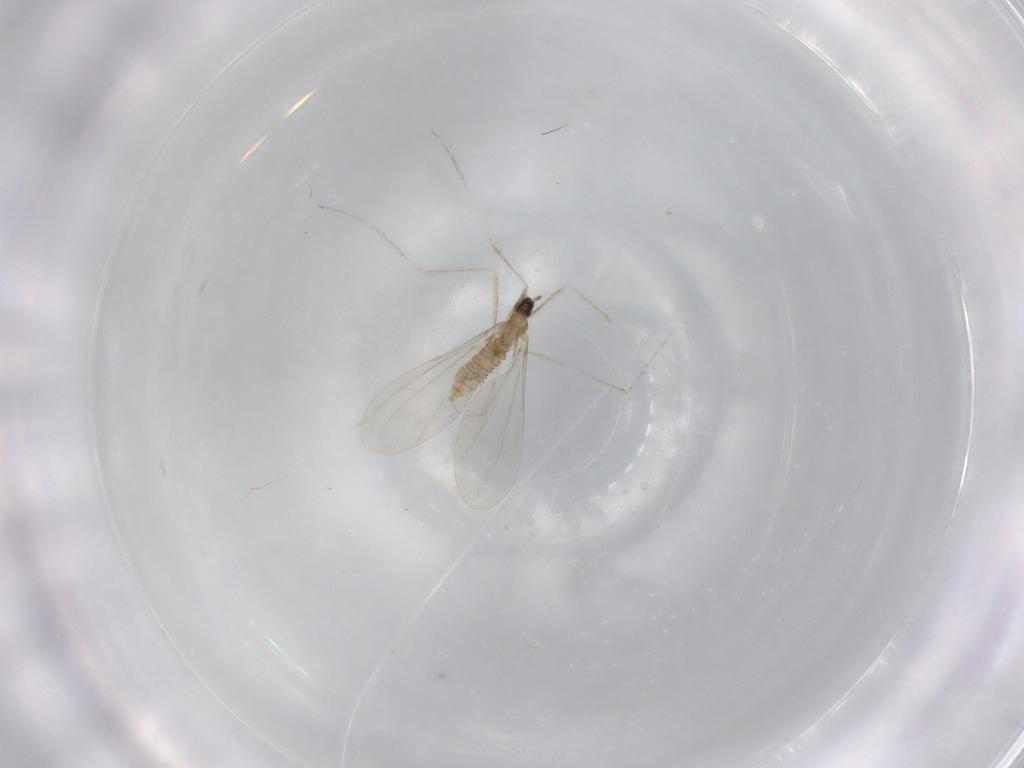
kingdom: Animalia
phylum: Arthropoda
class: Insecta
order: Diptera
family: Cecidomyiidae
